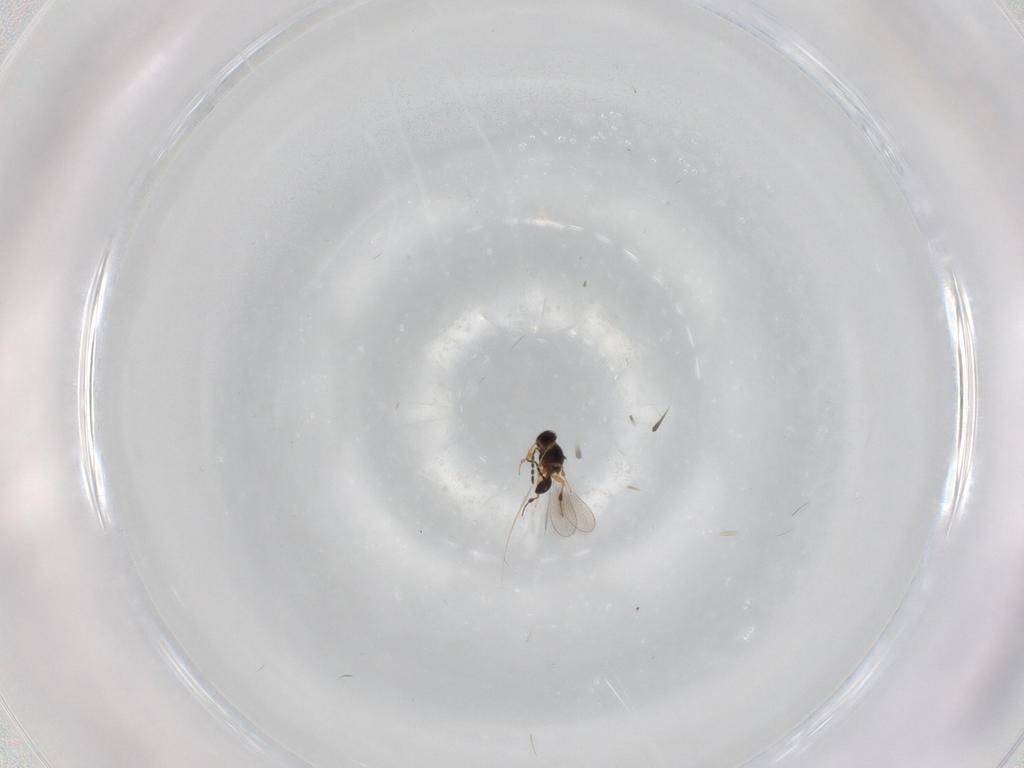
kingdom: Animalia
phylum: Arthropoda
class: Insecta
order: Hymenoptera
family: Platygastridae
